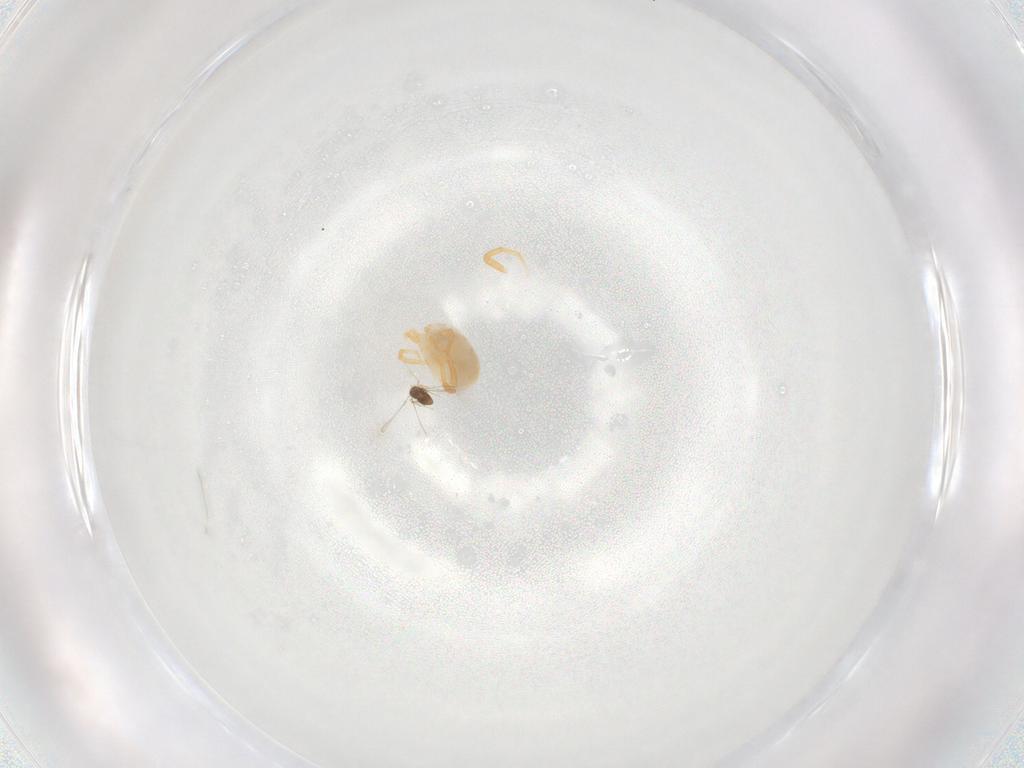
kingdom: Animalia
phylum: Arthropoda
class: Arachnida
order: Trombidiformes
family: Eupodidae
